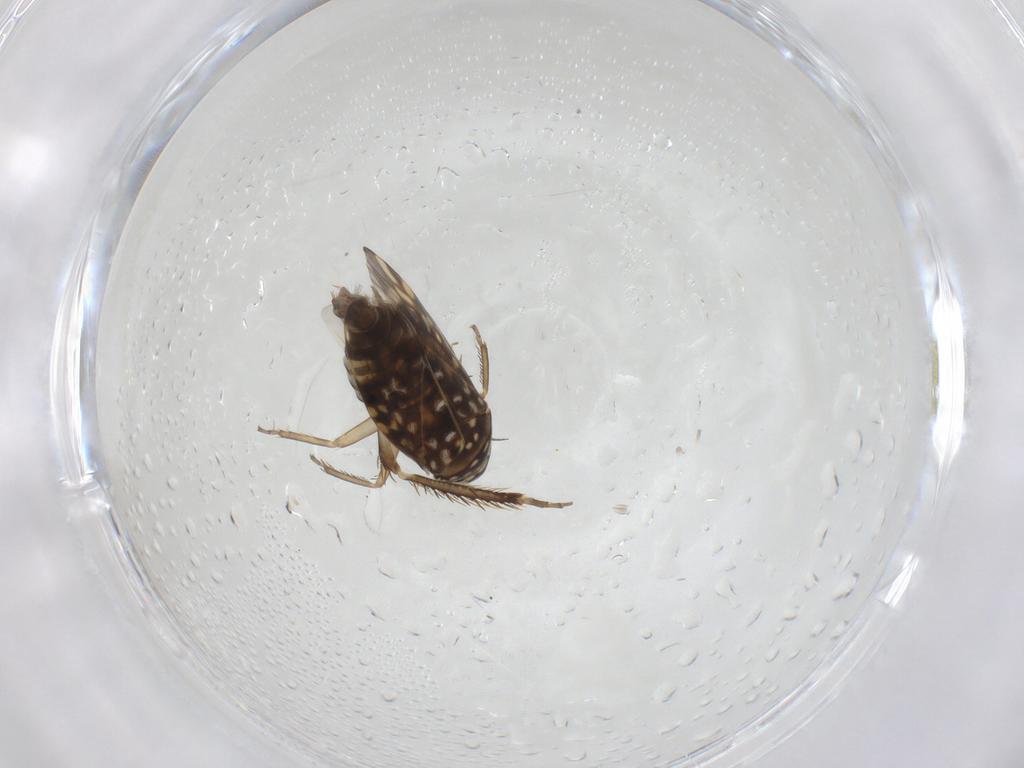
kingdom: Animalia
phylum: Arthropoda
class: Insecta
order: Hemiptera
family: Cicadellidae
